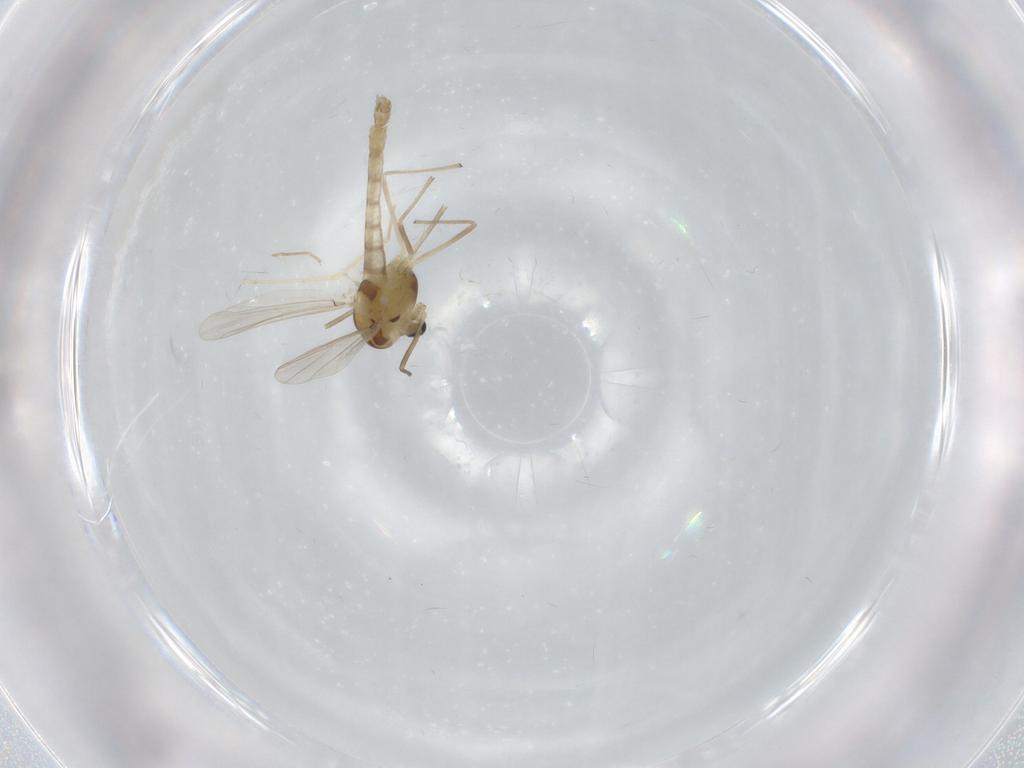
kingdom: Animalia
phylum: Arthropoda
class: Insecta
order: Diptera
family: Chironomidae
